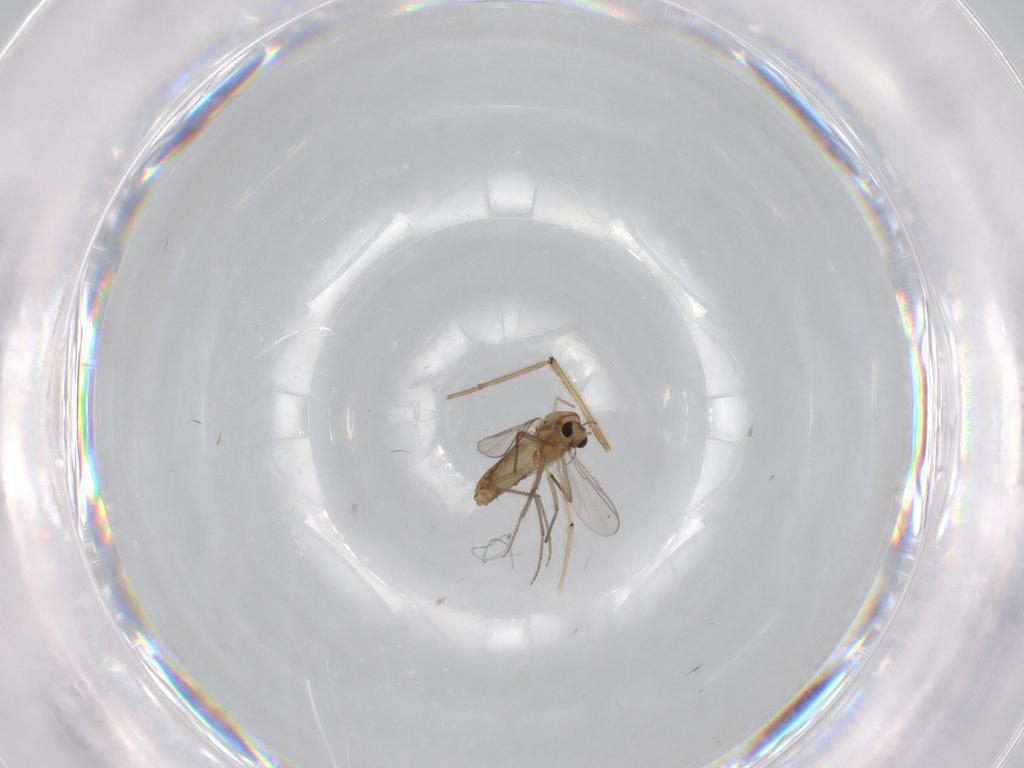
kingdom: Animalia
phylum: Arthropoda
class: Insecta
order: Diptera
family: Chironomidae
